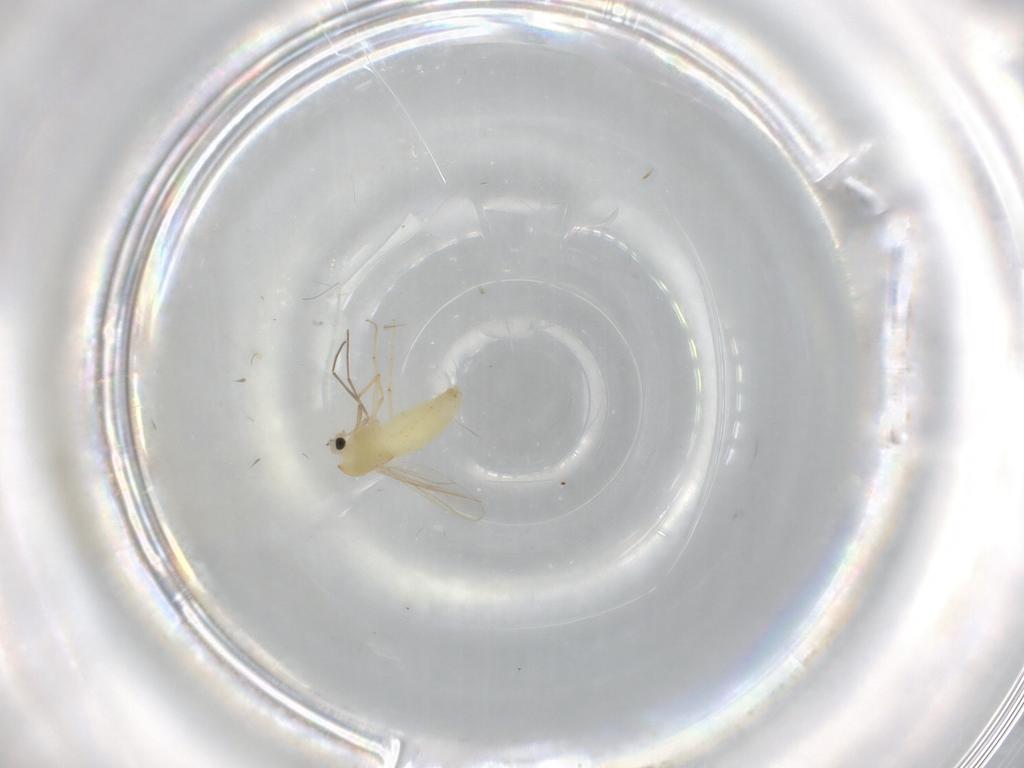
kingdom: Animalia
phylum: Arthropoda
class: Insecta
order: Diptera
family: Chironomidae
